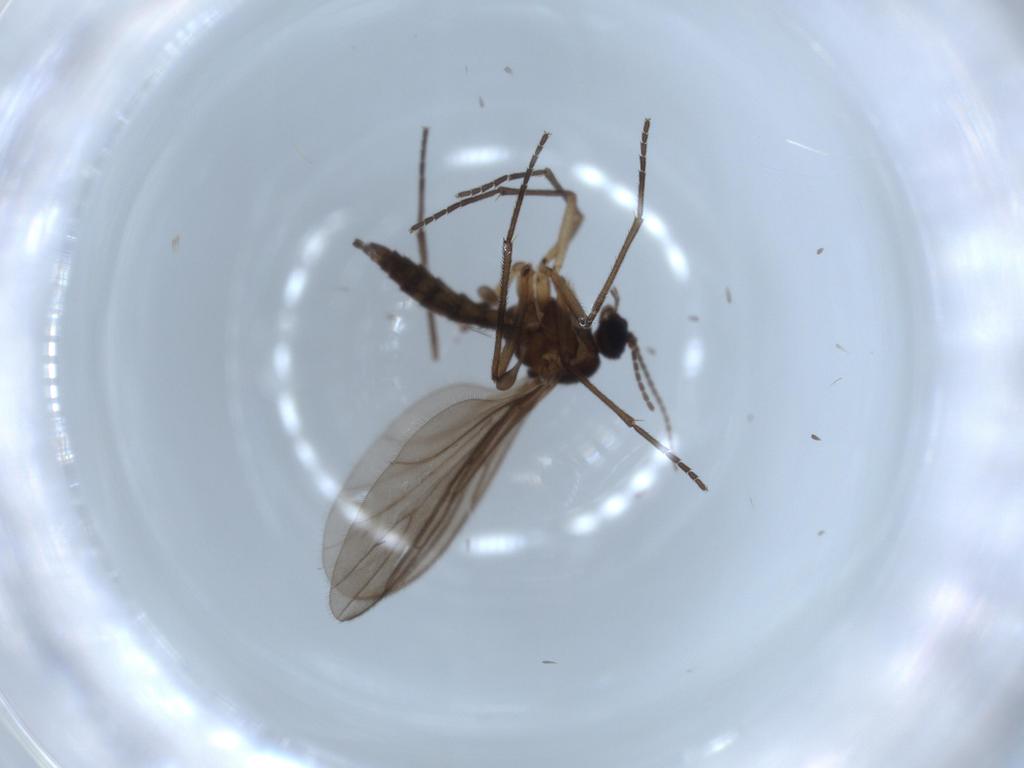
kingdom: Animalia
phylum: Arthropoda
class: Insecta
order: Diptera
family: Sciaridae
